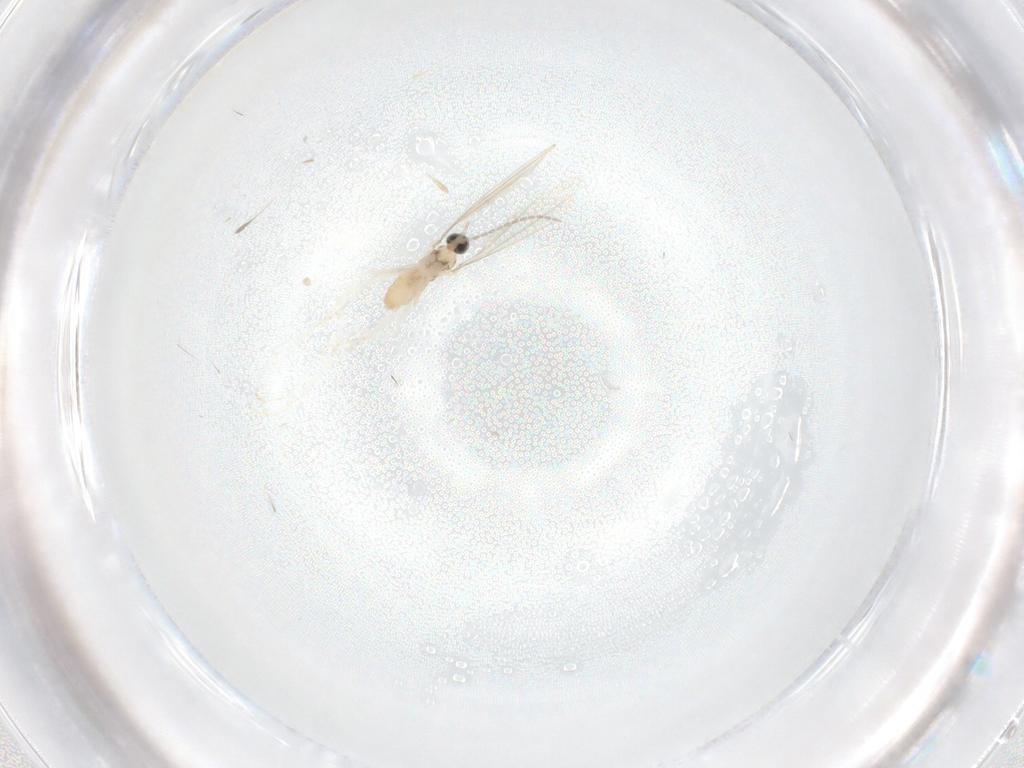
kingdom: Animalia
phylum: Arthropoda
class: Insecta
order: Diptera
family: Cecidomyiidae
